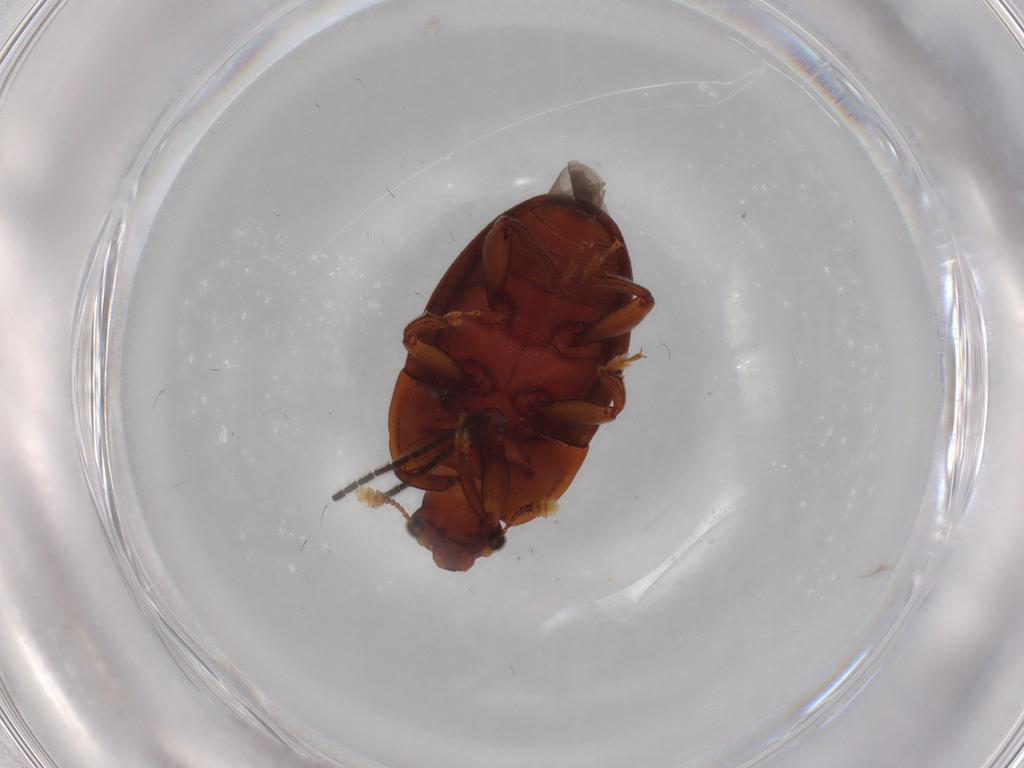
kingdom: Animalia
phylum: Arthropoda
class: Insecta
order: Coleoptera
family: Nitidulidae
